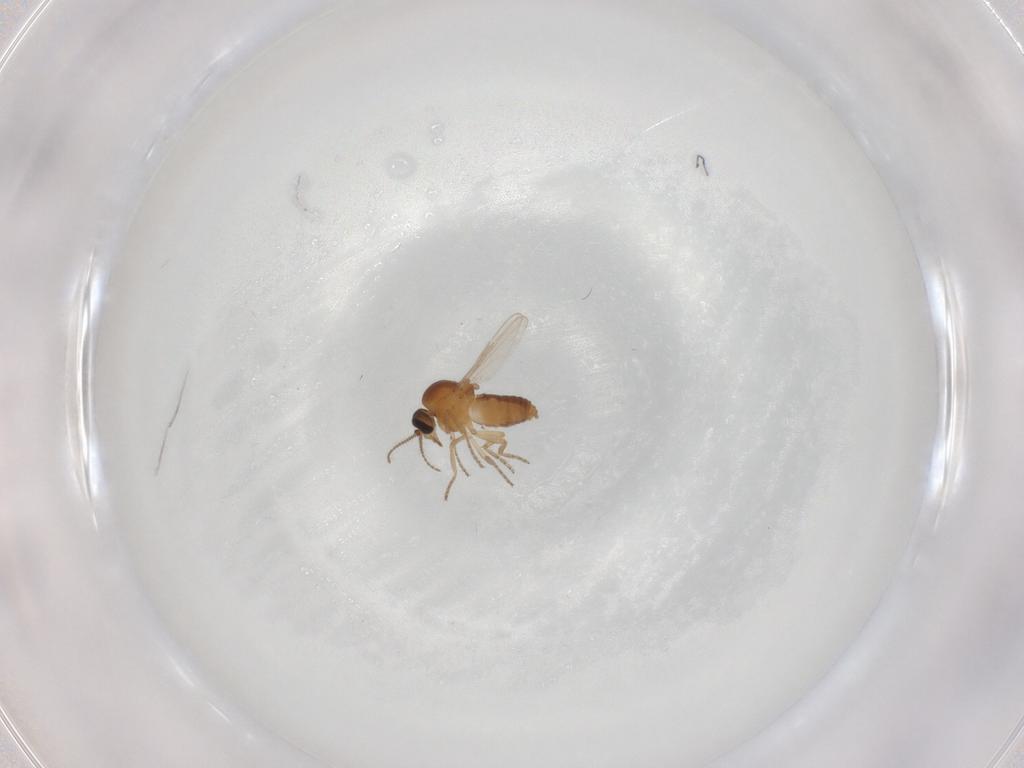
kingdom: Animalia
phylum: Arthropoda
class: Insecta
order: Diptera
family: Ceratopogonidae
